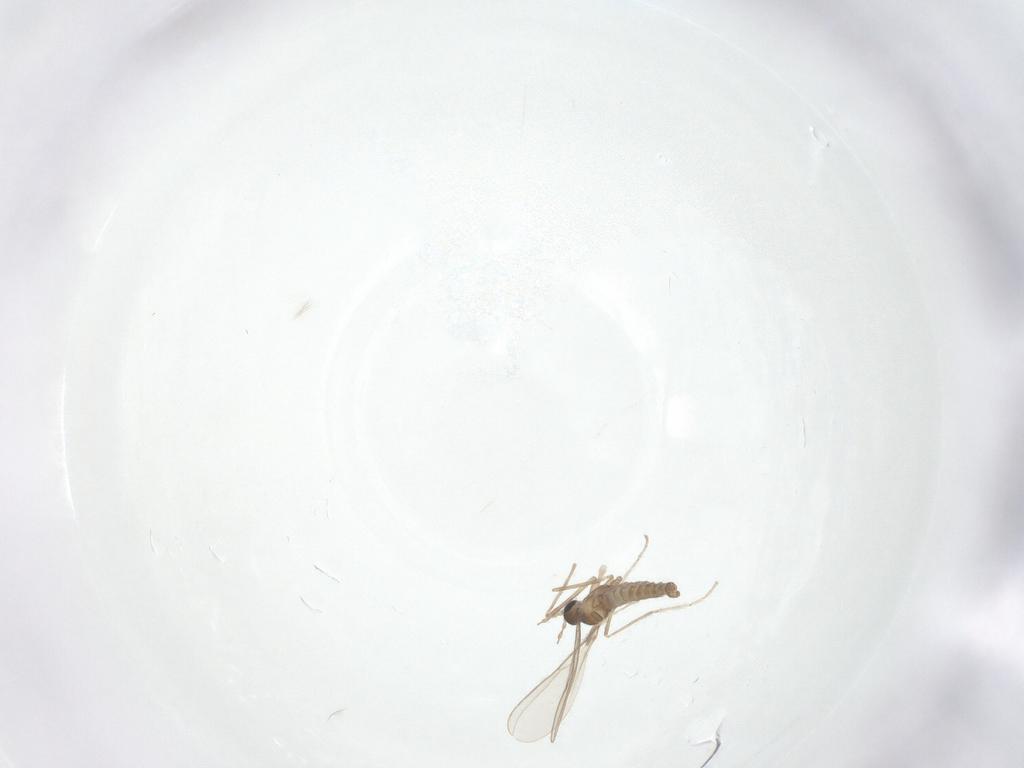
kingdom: Animalia
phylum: Arthropoda
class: Insecta
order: Diptera
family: Cecidomyiidae
